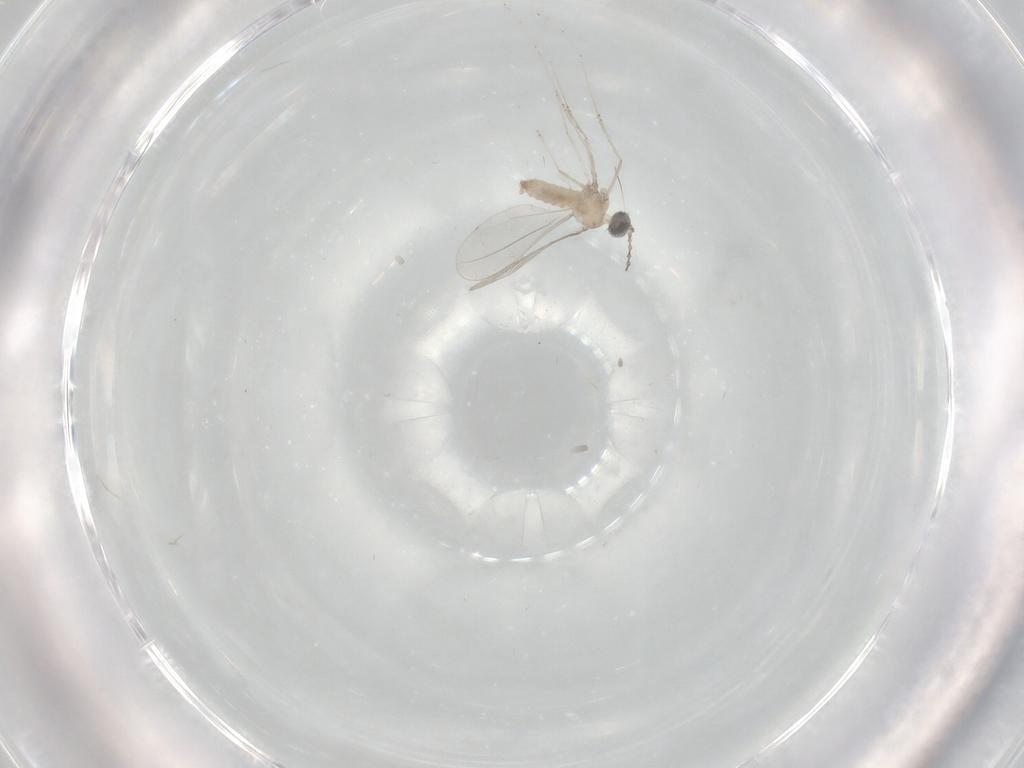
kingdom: Animalia
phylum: Arthropoda
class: Insecta
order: Diptera
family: Cecidomyiidae
